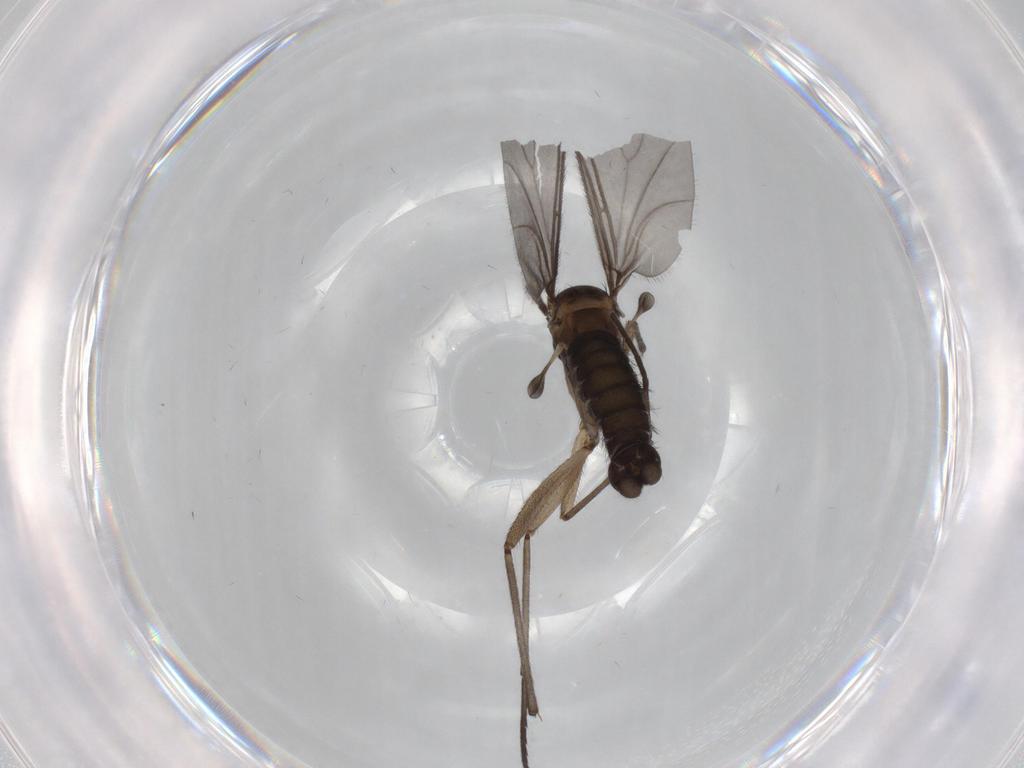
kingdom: Animalia
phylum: Arthropoda
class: Insecta
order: Diptera
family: Sciaridae
